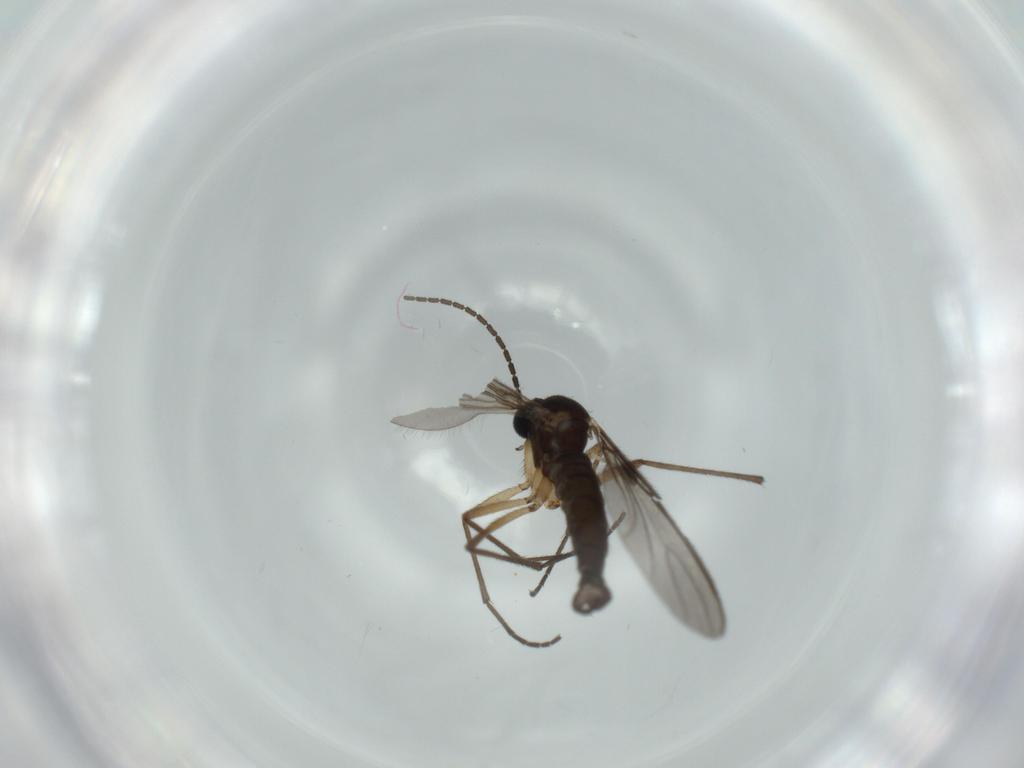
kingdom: Animalia
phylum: Arthropoda
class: Insecta
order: Diptera
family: Sciaridae
